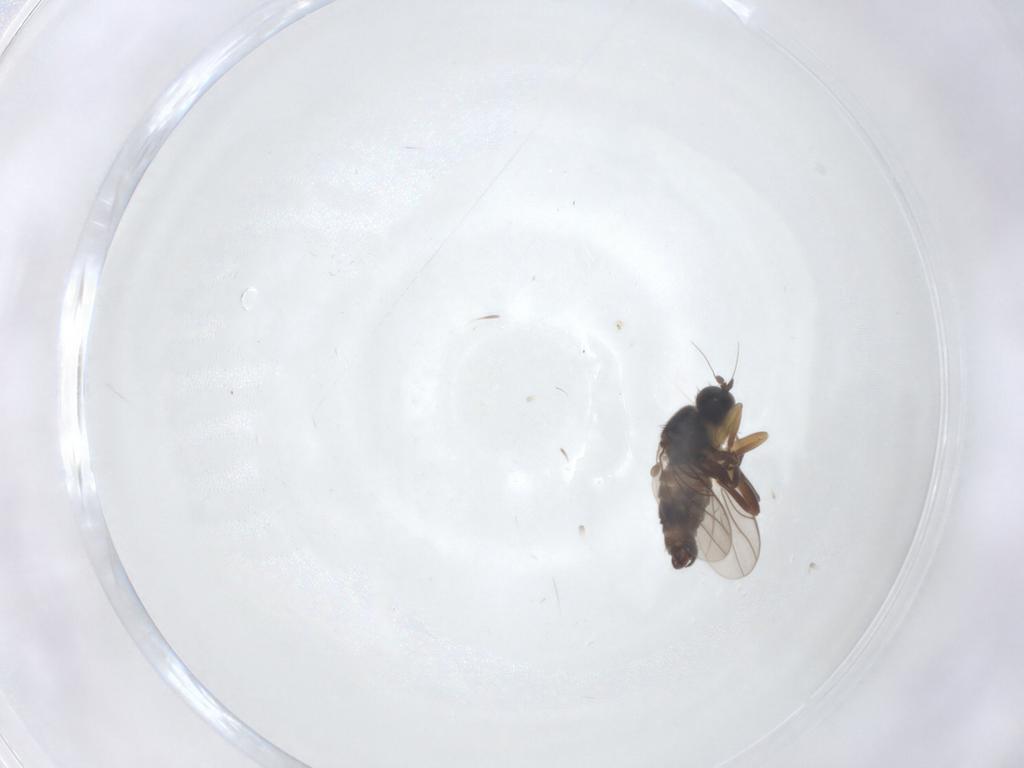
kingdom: Animalia
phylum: Arthropoda
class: Insecta
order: Diptera
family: Hybotidae
